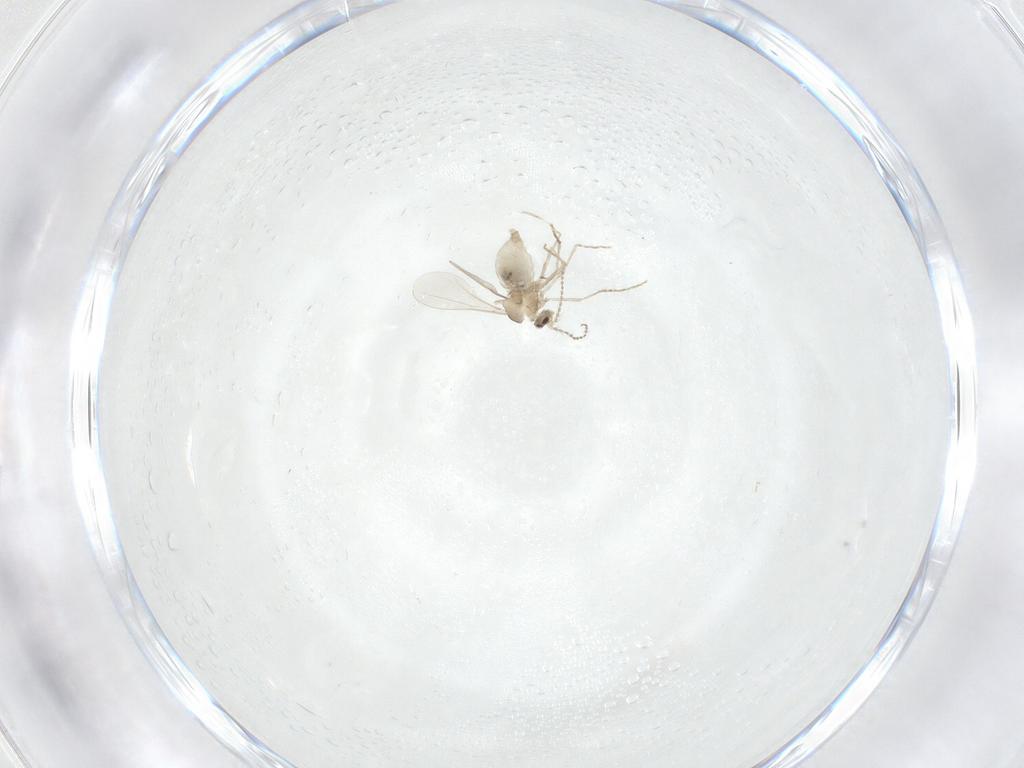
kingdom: Animalia
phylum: Arthropoda
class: Insecta
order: Diptera
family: Cecidomyiidae
